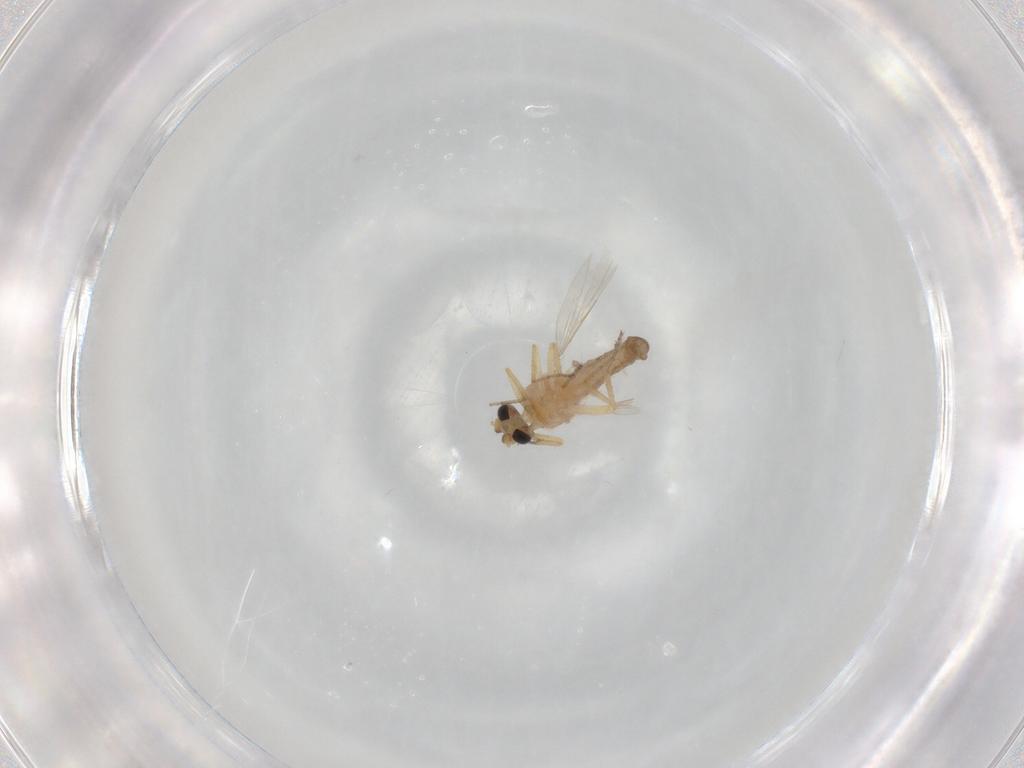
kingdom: Animalia
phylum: Arthropoda
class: Insecta
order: Diptera
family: Ceratopogonidae
